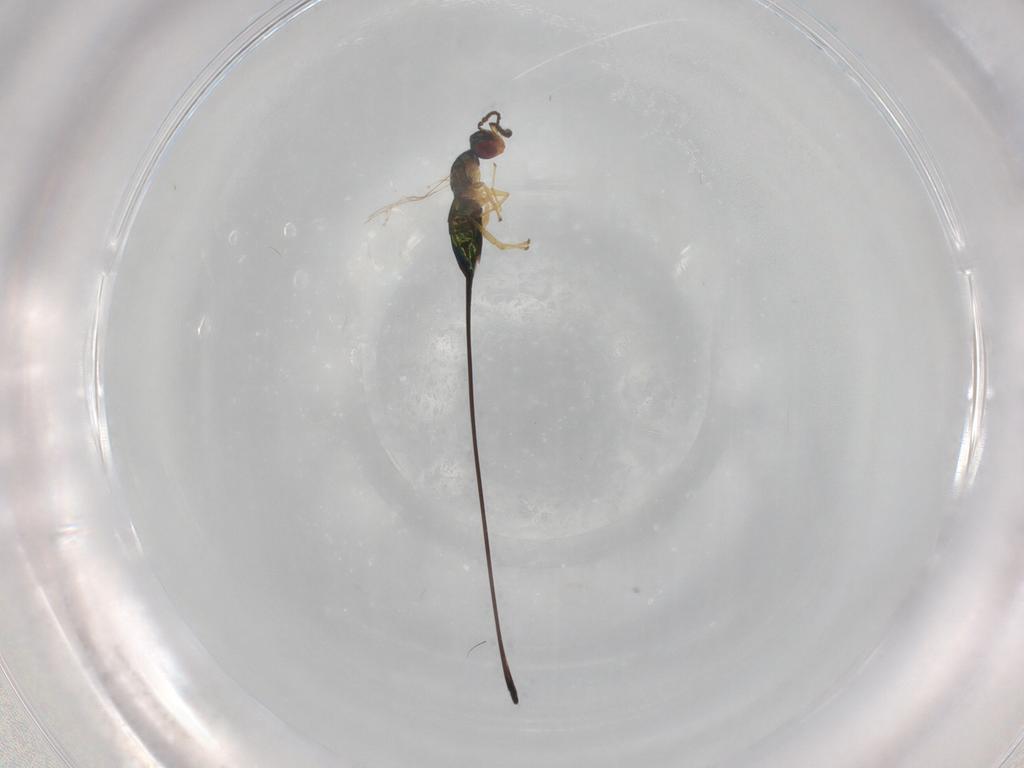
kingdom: Animalia
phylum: Arthropoda
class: Insecta
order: Hymenoptera
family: Pteromalidae
